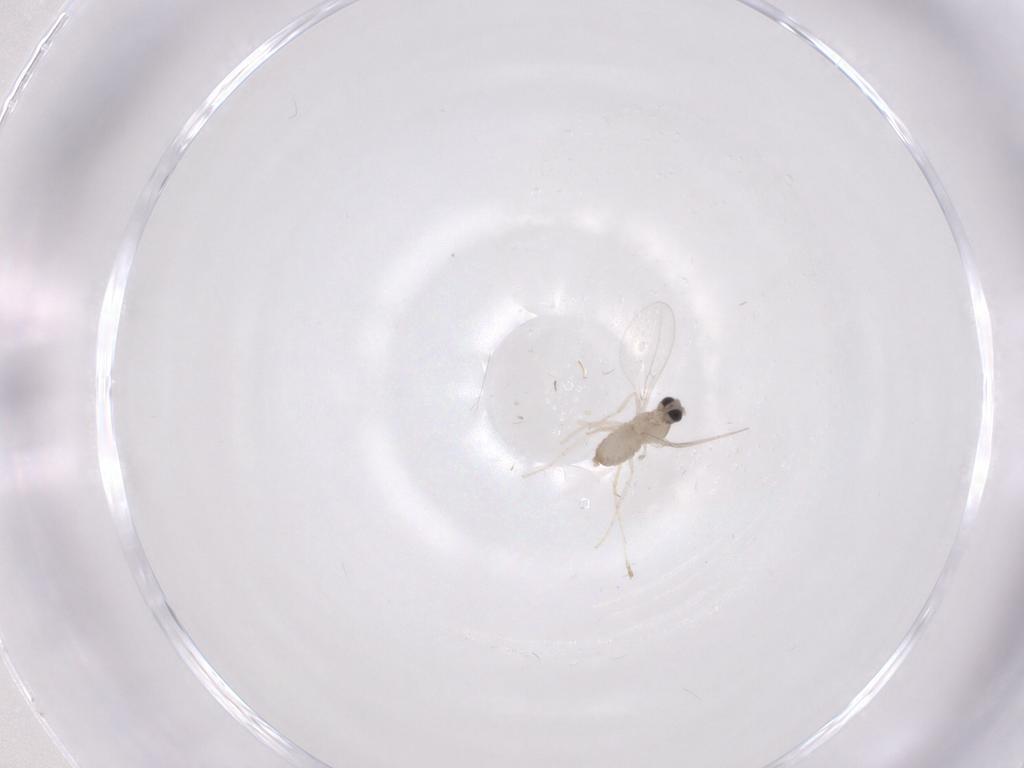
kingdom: Animalia
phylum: Arthropoda
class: Insecta
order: Diptera
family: Cecidomyiidae
